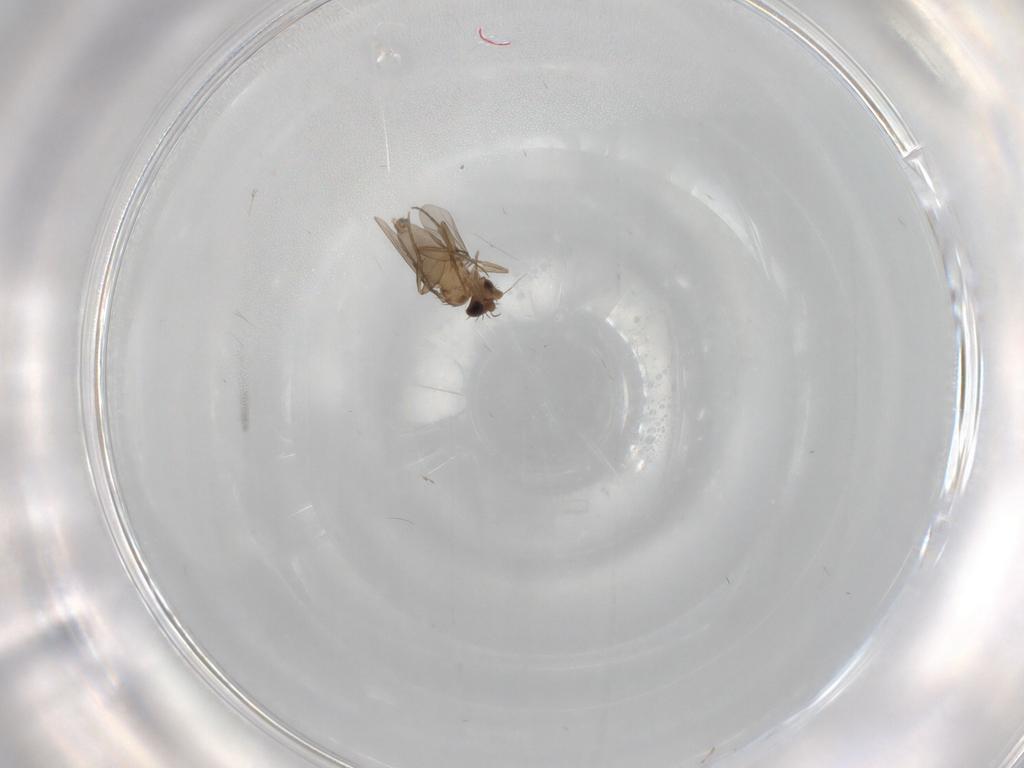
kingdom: Animalia
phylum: Arthropoda
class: Insecta
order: Diptera
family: Phoridae
